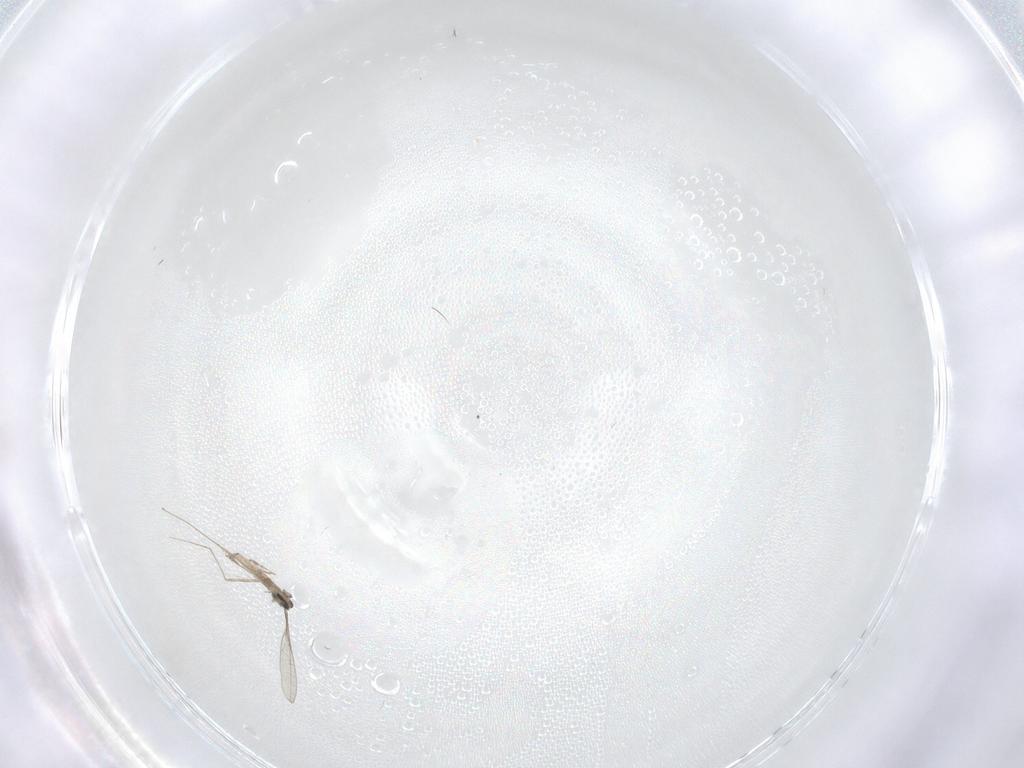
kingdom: Animalia
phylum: Arthropoda
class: Insecta
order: Diptera
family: Cecidomyiidae
